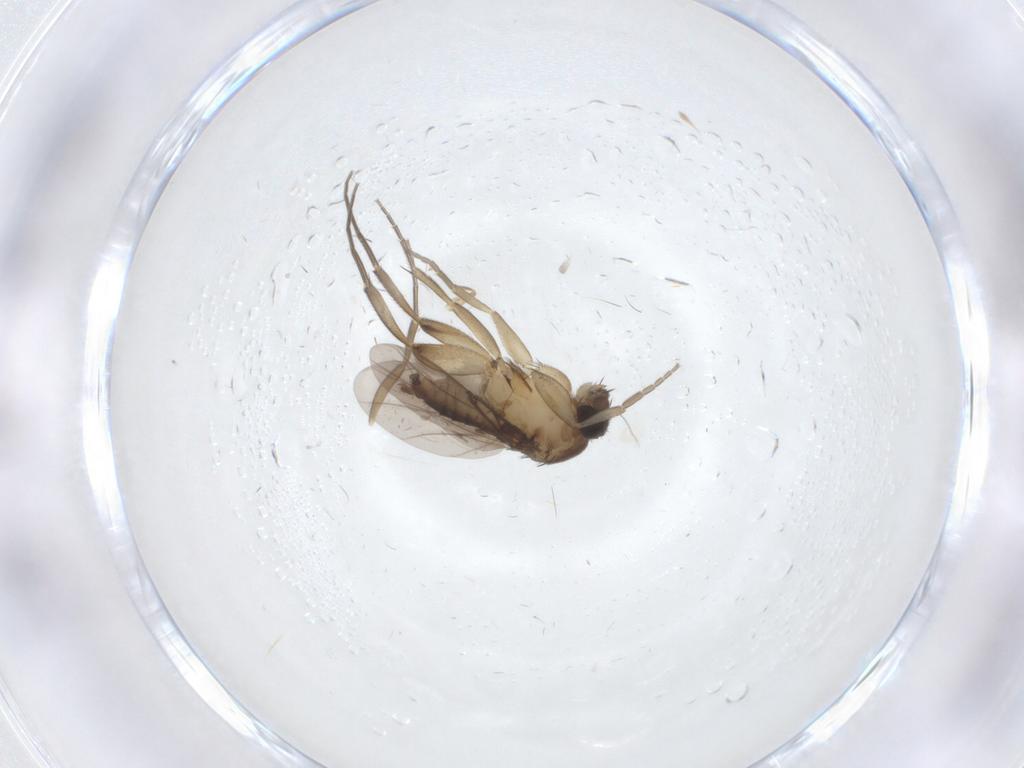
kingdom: Animalia
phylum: Arthropoda
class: Insecta
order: Diptera
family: Phoridae
